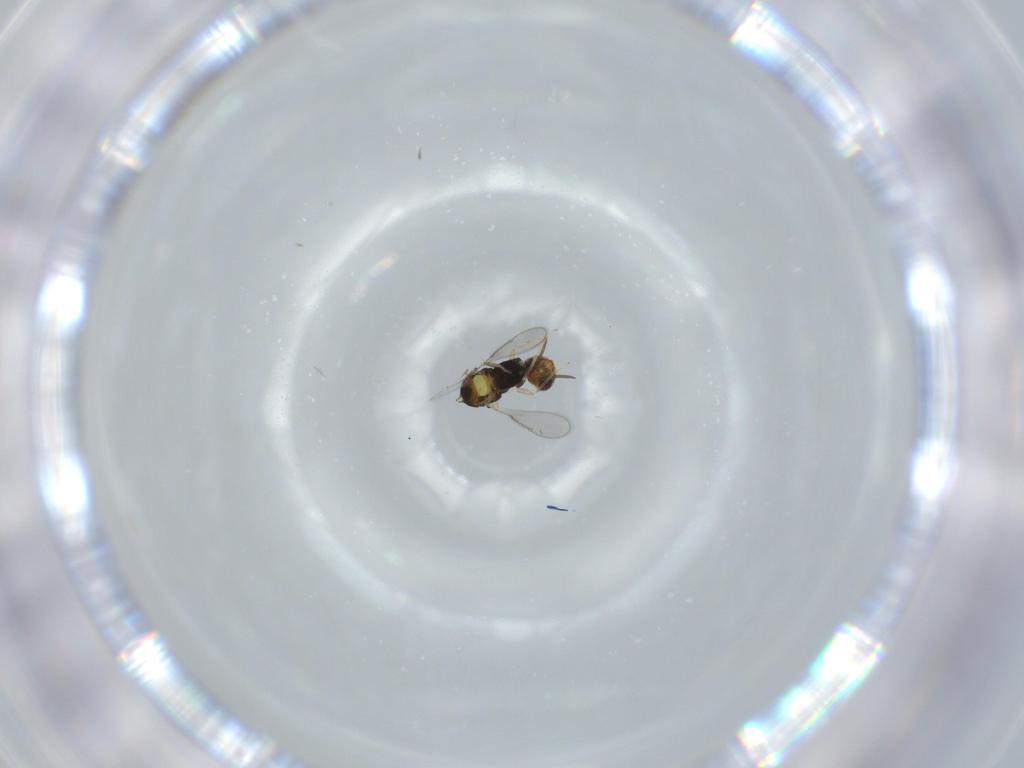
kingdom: Animalia
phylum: Arthropoda
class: Insecta
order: Hymenoptera
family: Aphelinidae
